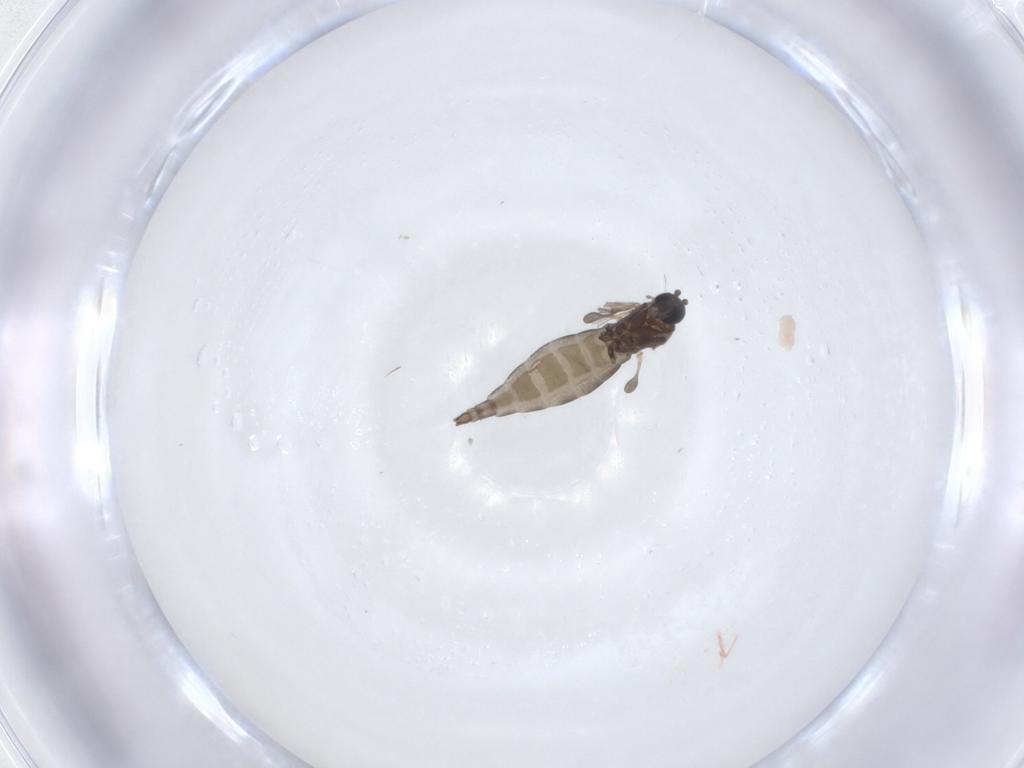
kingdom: Animalia
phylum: Arthropoda
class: Insecta
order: Diptera
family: Sciaridae
